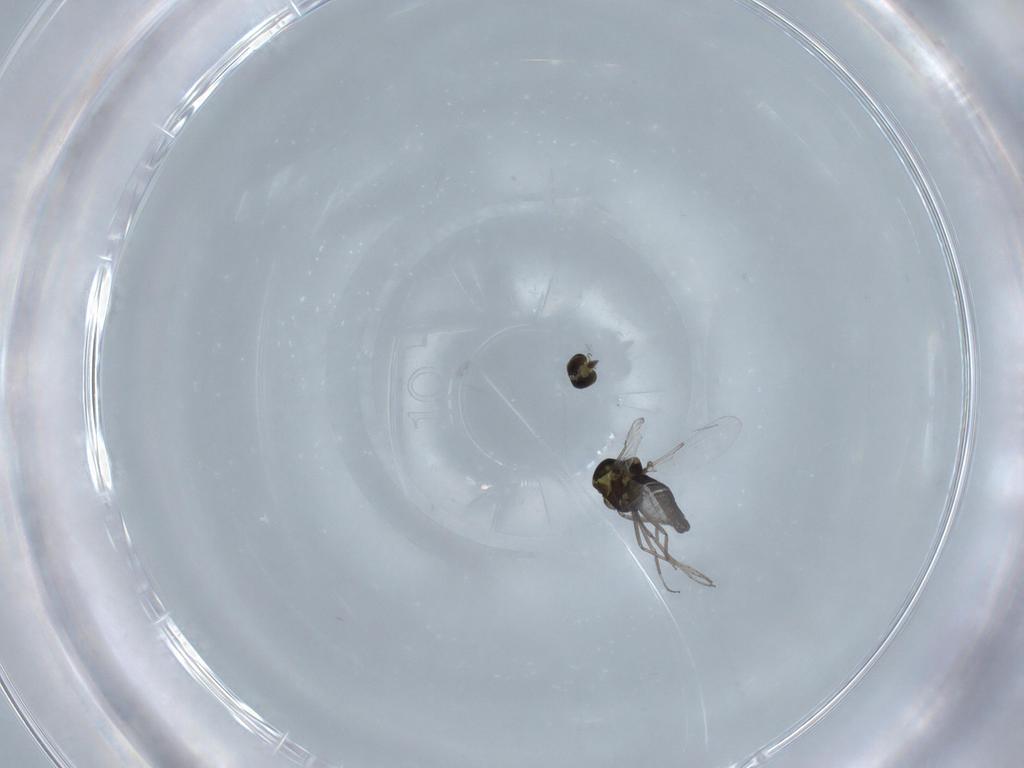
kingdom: Animalia
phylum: Arthropoda
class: Insecta
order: Diptera
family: Ceratopogonidae
